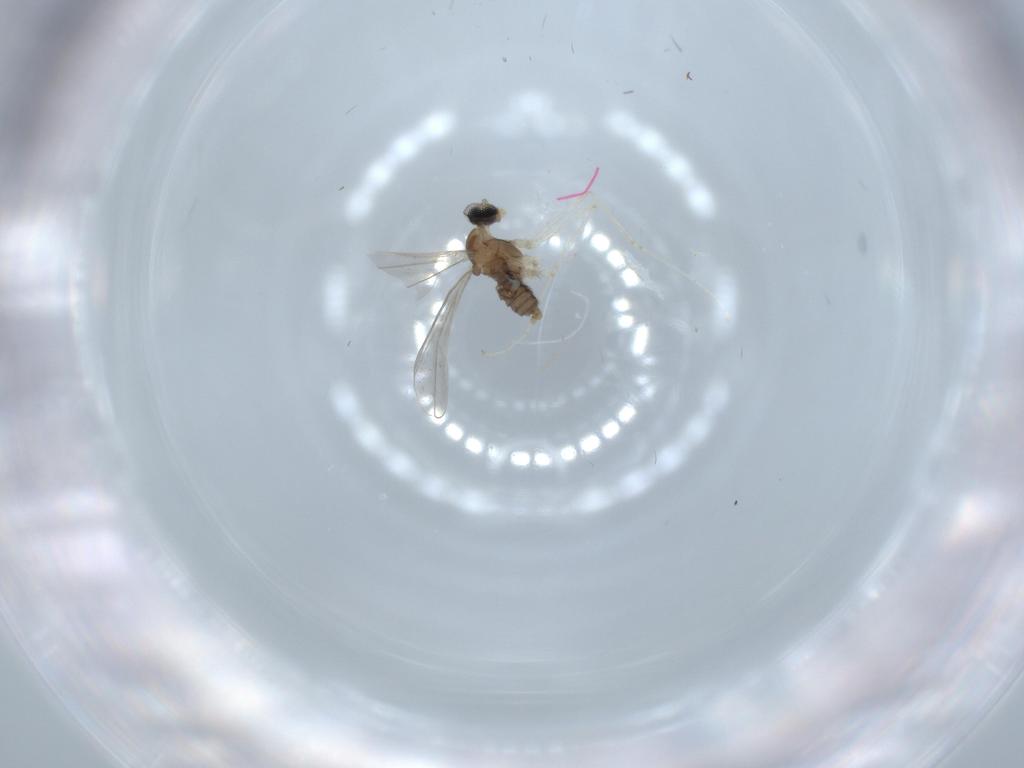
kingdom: Animalia
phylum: Arthropoda
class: Insecta
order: Diptera
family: Cecidomyiidae
